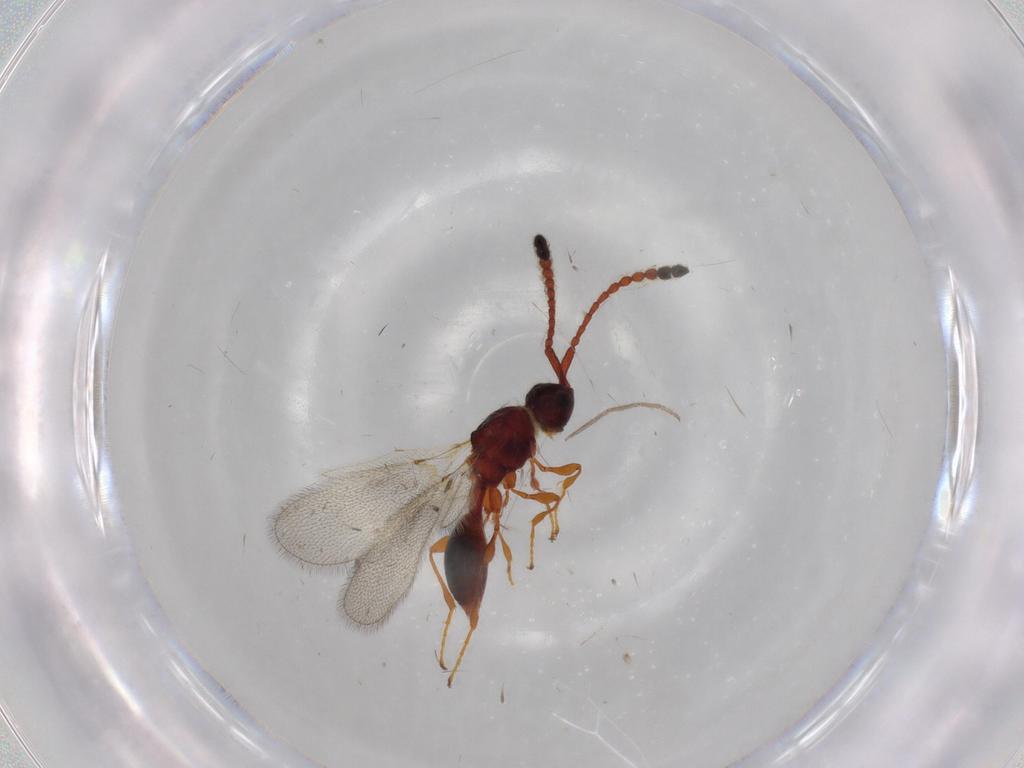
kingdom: Animalia
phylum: Arthropoda
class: Insecta
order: Hymenoptera
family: Diapriidae
